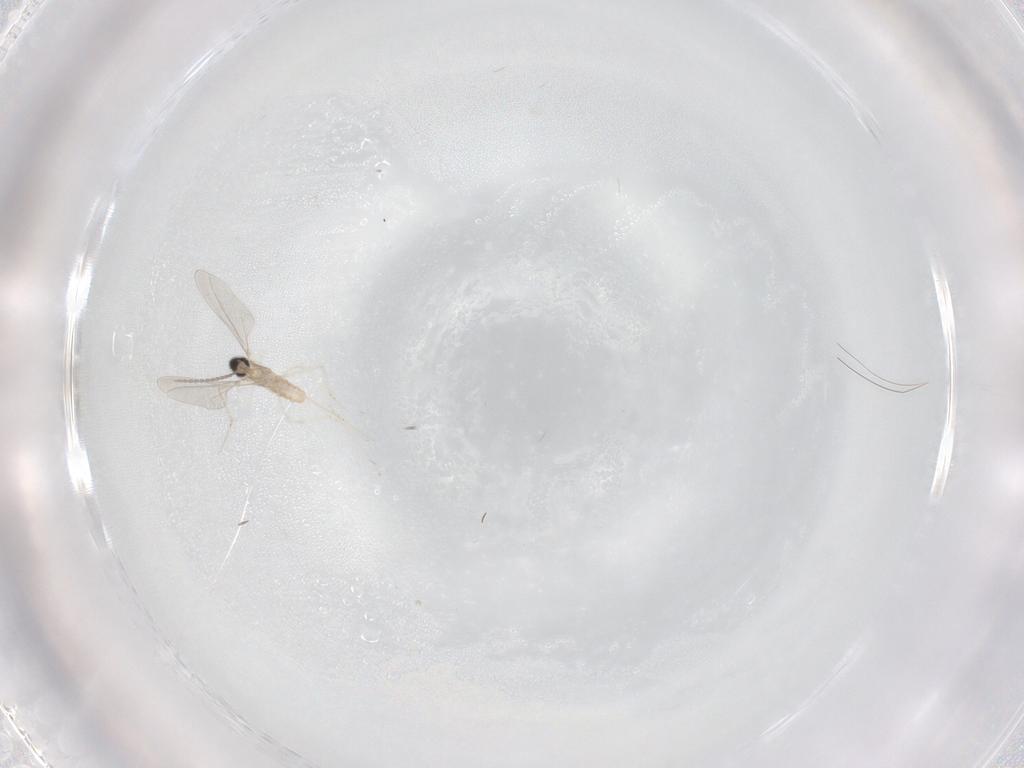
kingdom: Animalia
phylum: Arthropoda
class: Insecta
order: Diptera
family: Cecidomyiidae
